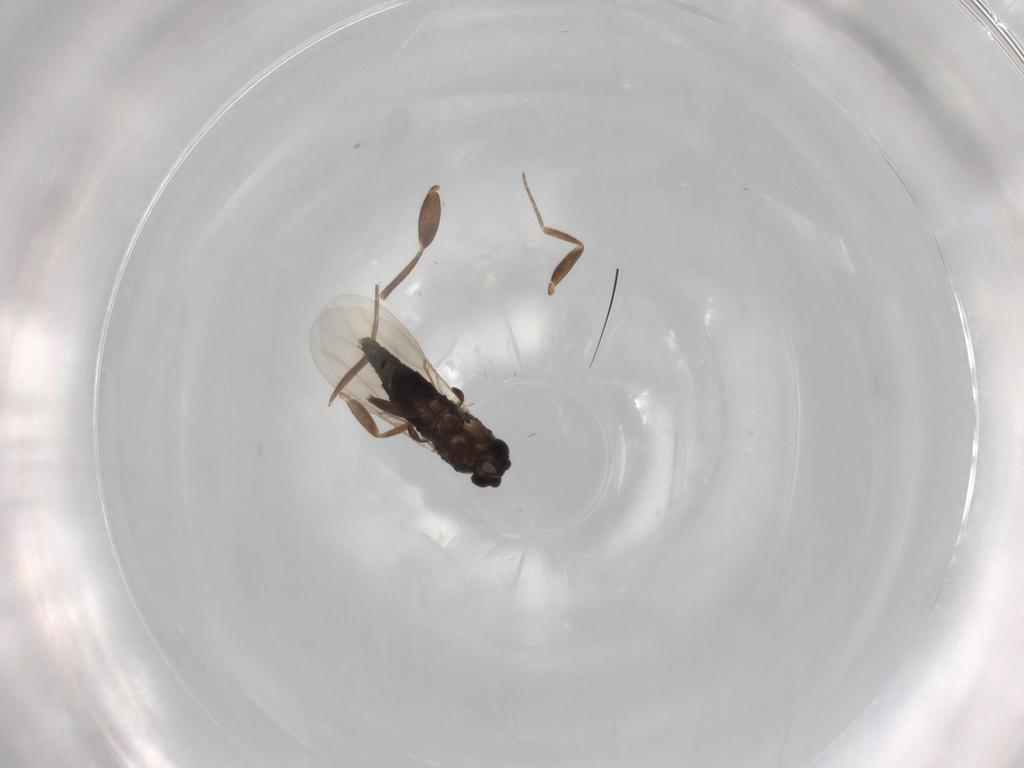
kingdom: Animalia
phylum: Arthropoda
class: Insecta
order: Diptera
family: Phoridae
